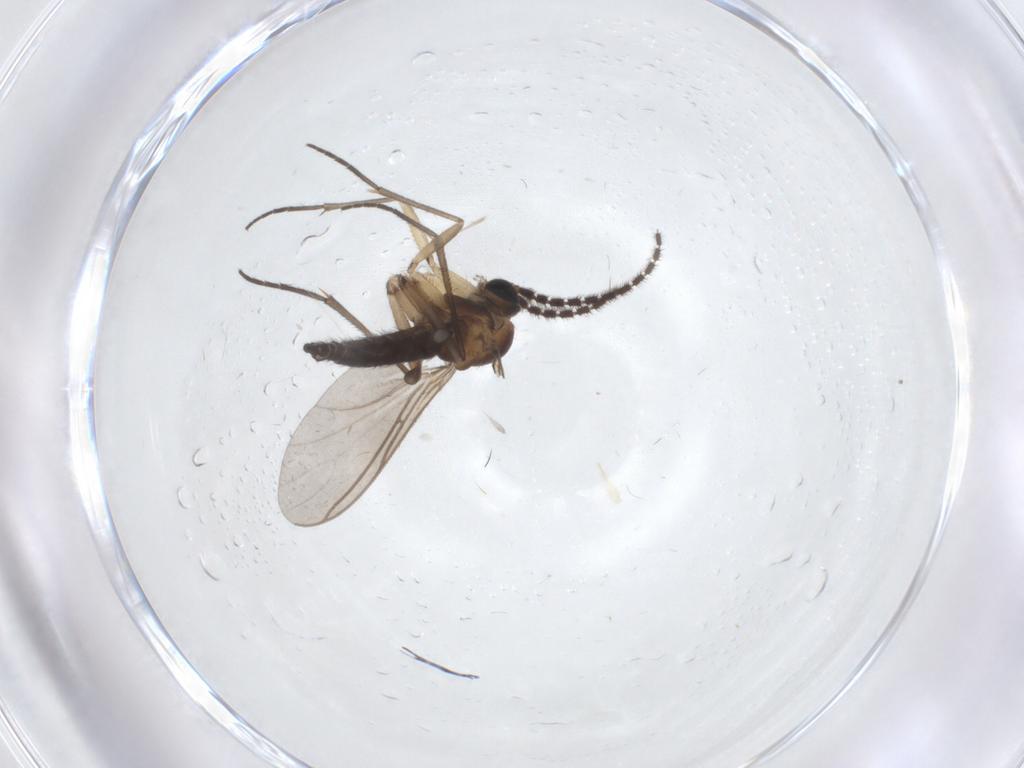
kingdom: Animalia
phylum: Arthropoda
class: Insecta
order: Diptera
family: Sciaridae
